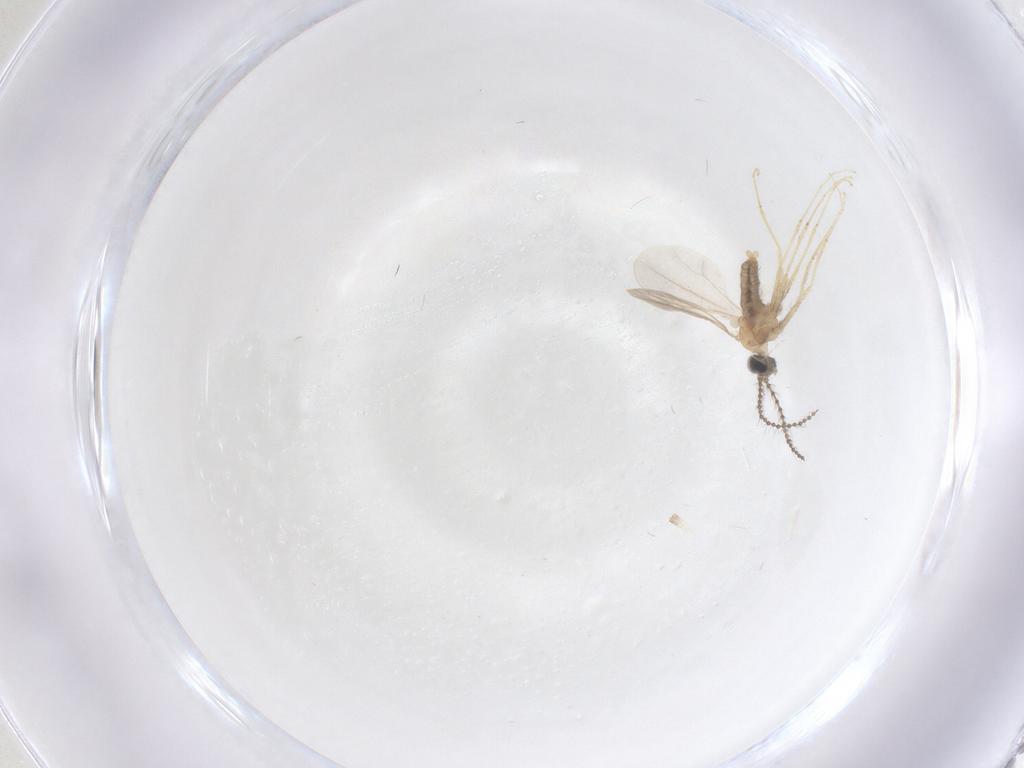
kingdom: Animalia
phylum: Arthropoda
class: Insecta
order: Diptera
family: Cecidomyiidae
